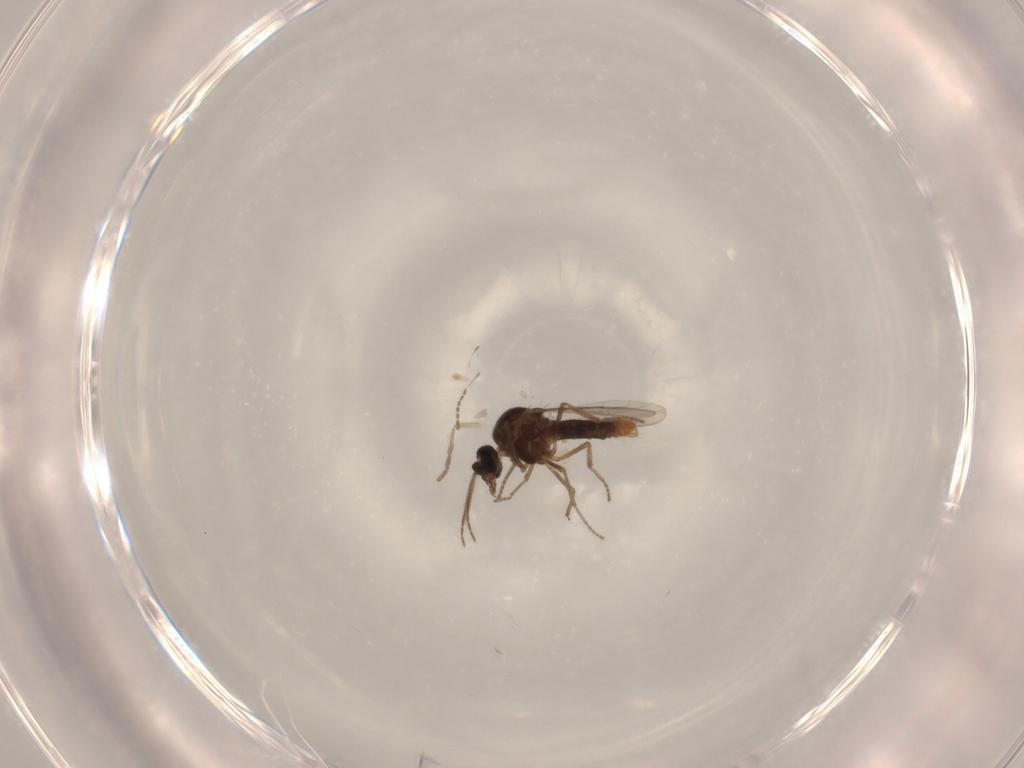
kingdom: Animalia
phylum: Arthropoda
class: Insecta
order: Diptera
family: Psychodidae
